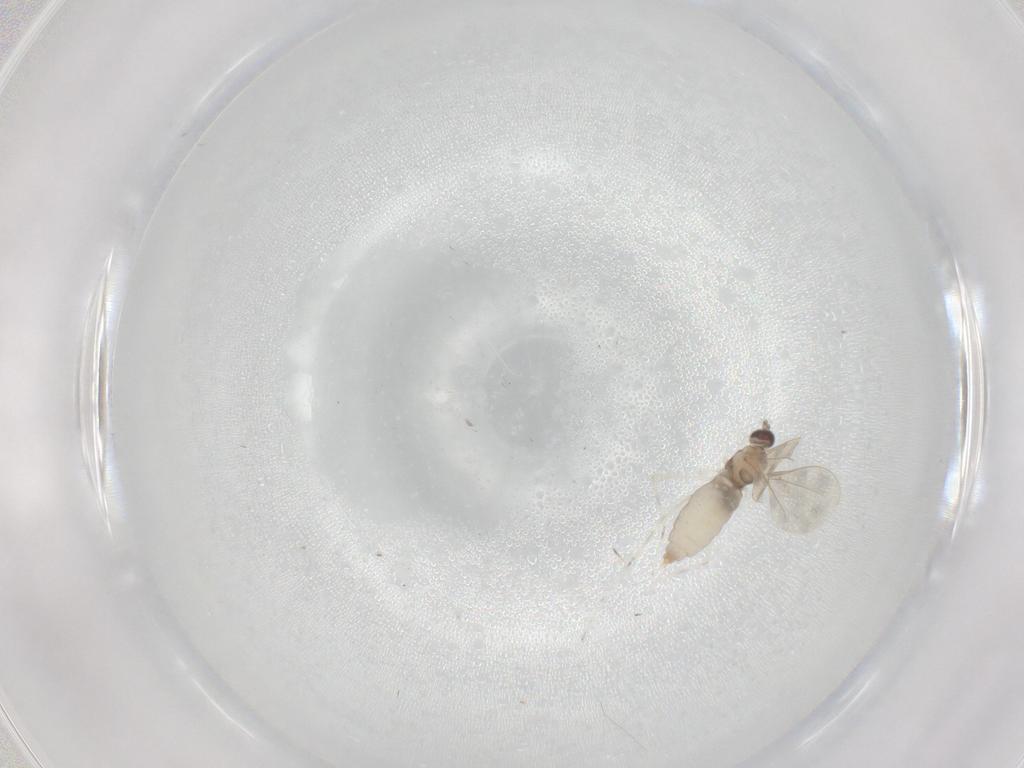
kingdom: Animalia
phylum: Arthropoda
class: Insecta
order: Diptera
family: Cecidomyiidae
